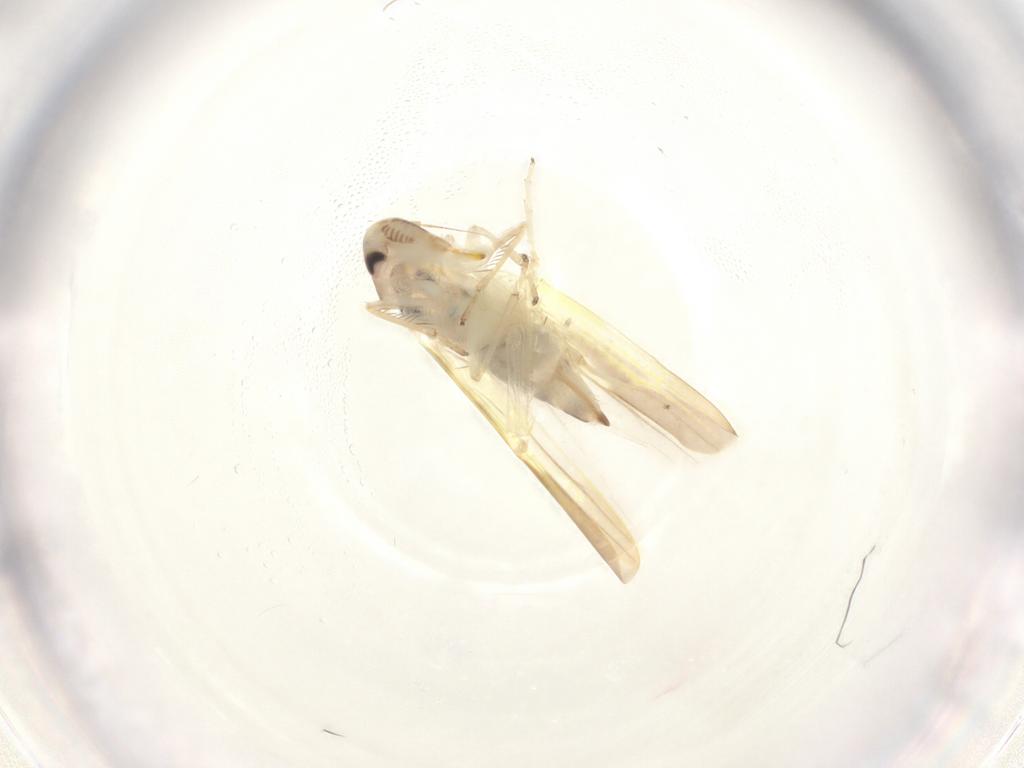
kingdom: Animalia
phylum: Arthropoda
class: Insecta
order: Hemiptera
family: Cicadellidae
